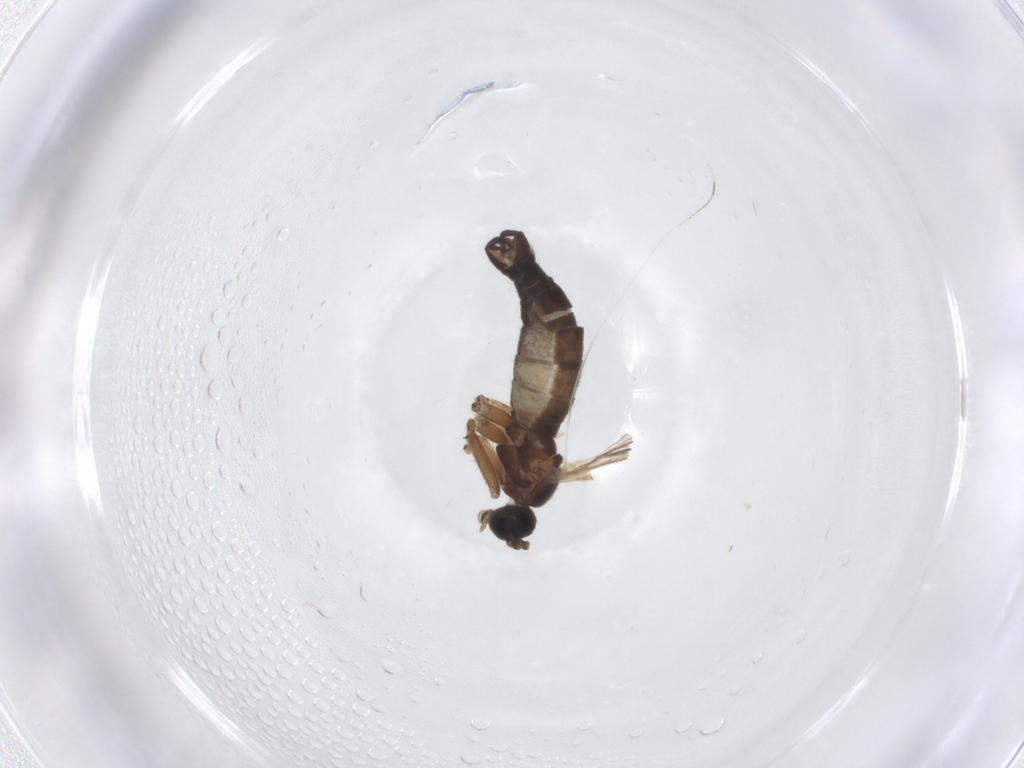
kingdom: Animalia
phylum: Arthropoda
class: Insecta
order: Diptera
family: Sciaridae
